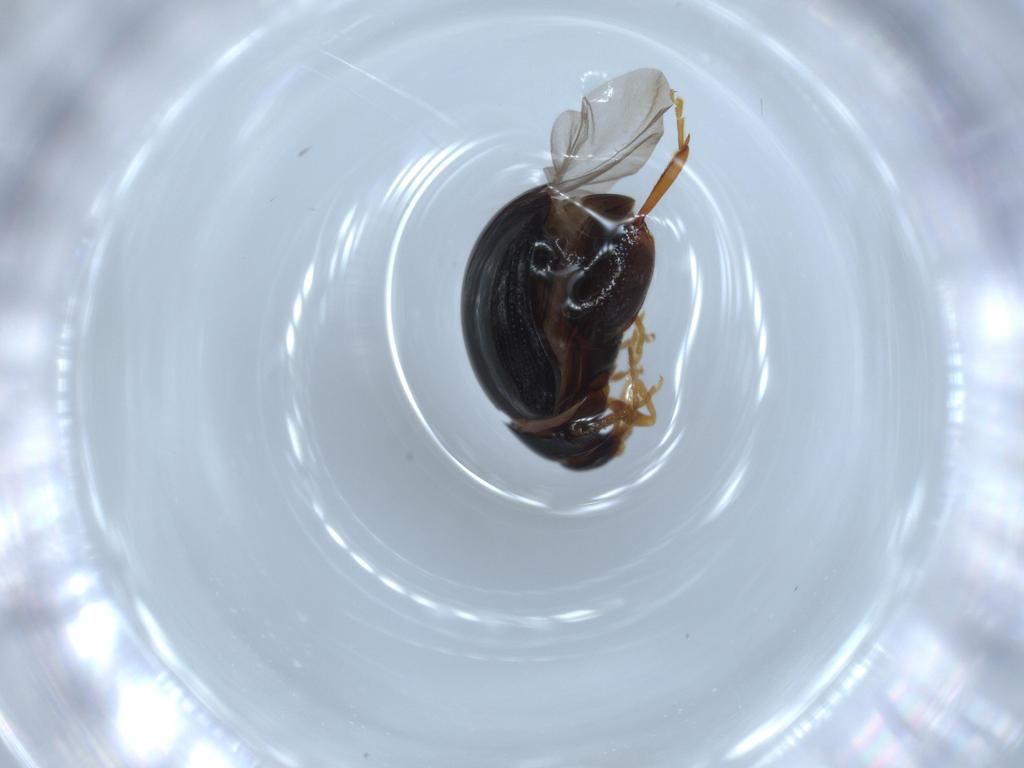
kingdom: Animalia
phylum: Arthropoda
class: Insecta
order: Coleoptera
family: Chrysomelidae
